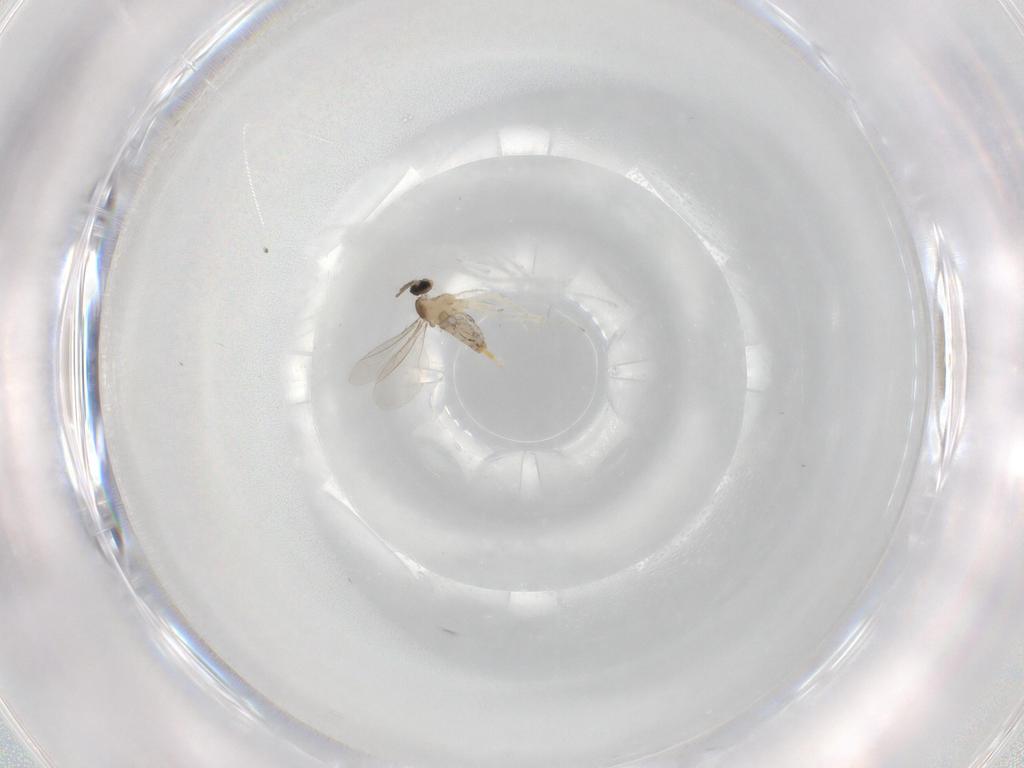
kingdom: Animalia
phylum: Arthropoda
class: Insecta
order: Diptera
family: Cecidomyiidae
